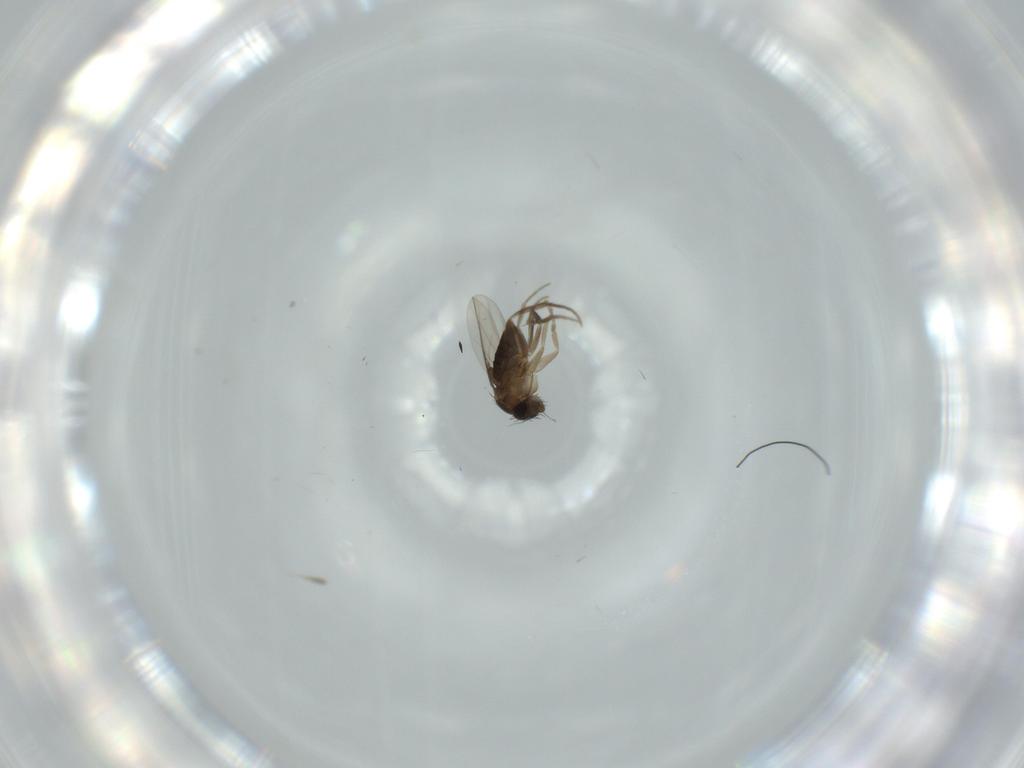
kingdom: Animalia
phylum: Arthropoda
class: Insecta
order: Diptera
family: Phoridae
